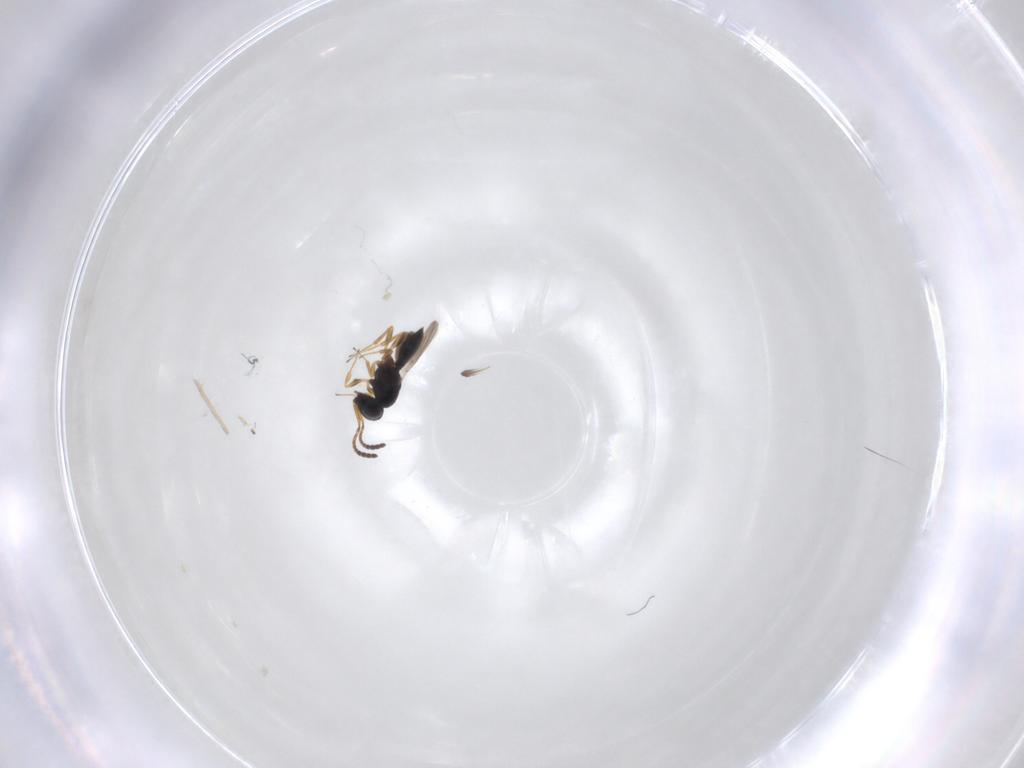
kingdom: Animalia
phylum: Arthropoda
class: Insecta
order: Hymenoptera
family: Scelionidae
